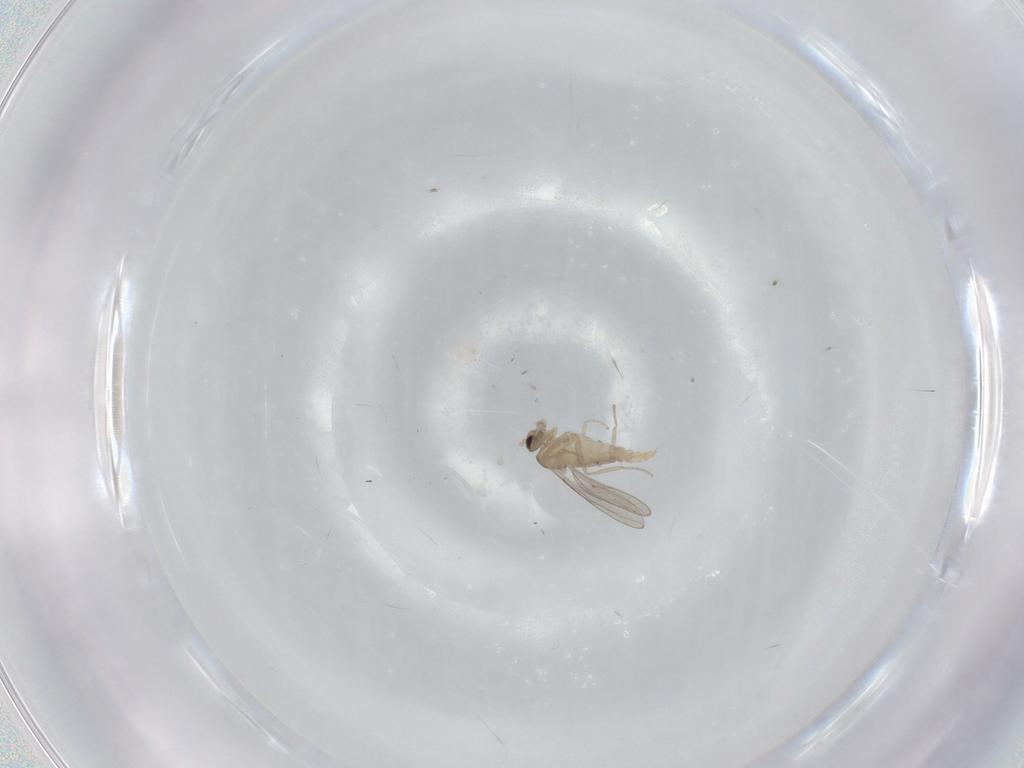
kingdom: Animalia
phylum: Arthropoda
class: Insecta
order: Diptera
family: Cecidomyiidae
